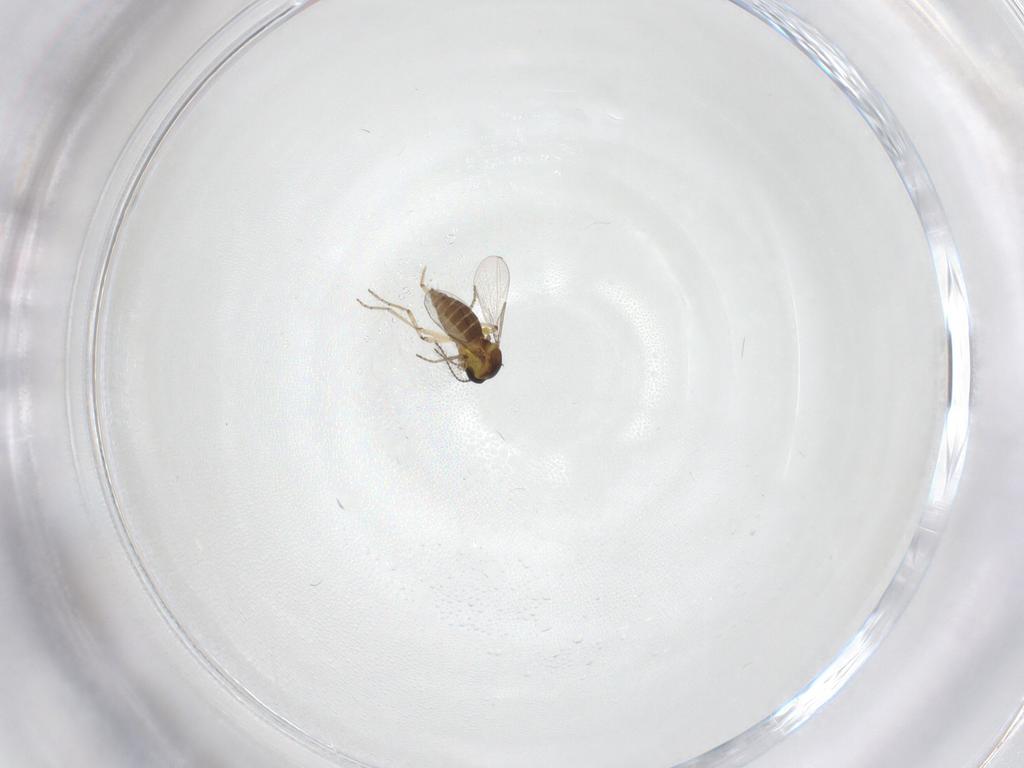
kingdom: Animalia
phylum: Arthropoda
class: Insecta
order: Diptera
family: Ceratopogonidae
